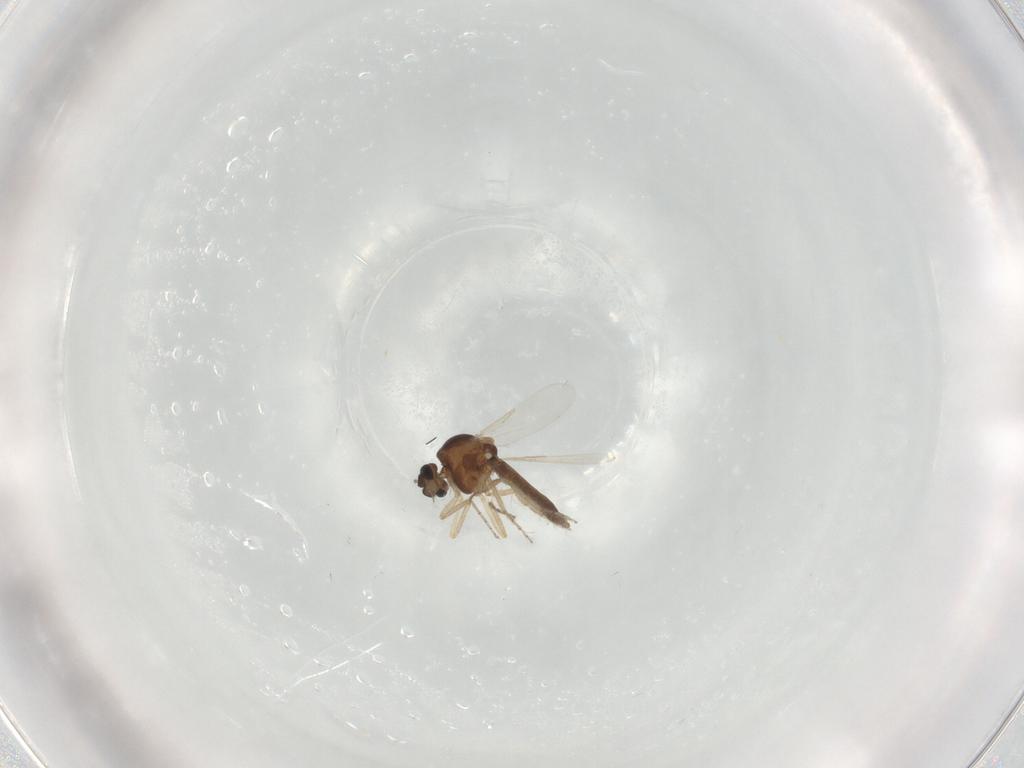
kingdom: Animalia
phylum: Arthropoda
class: Insecta
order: Diptera
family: Ceratopogonidae
